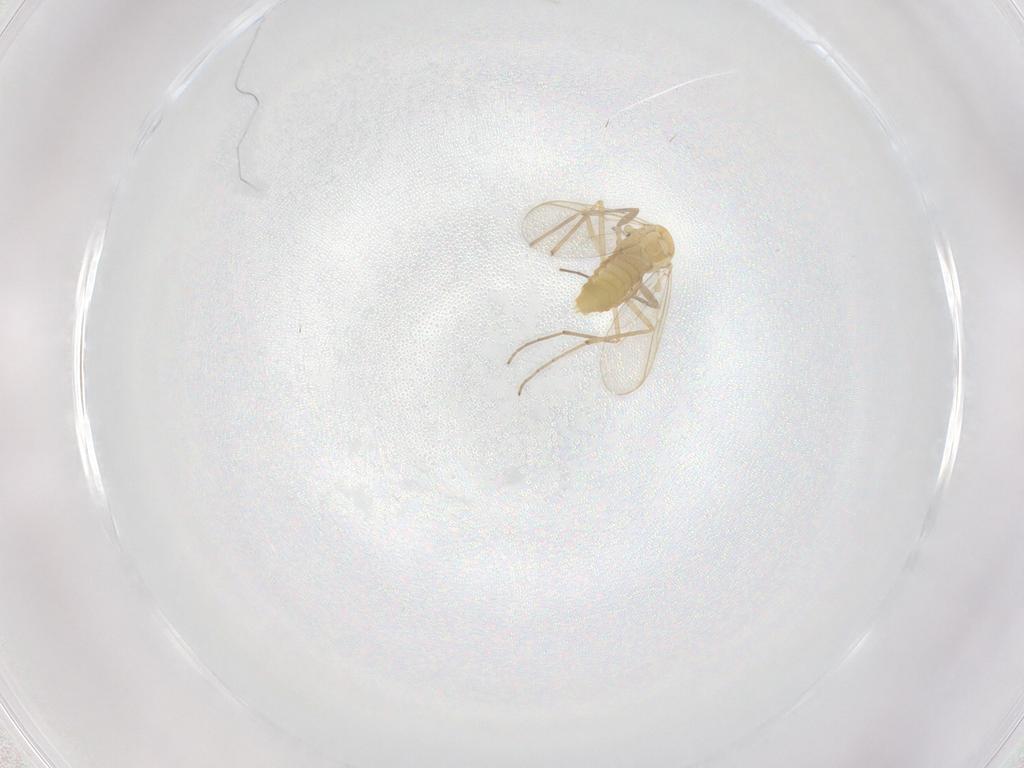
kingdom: Animalia
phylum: Arthropoda
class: Insecta
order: Diptera
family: Chironomidae
